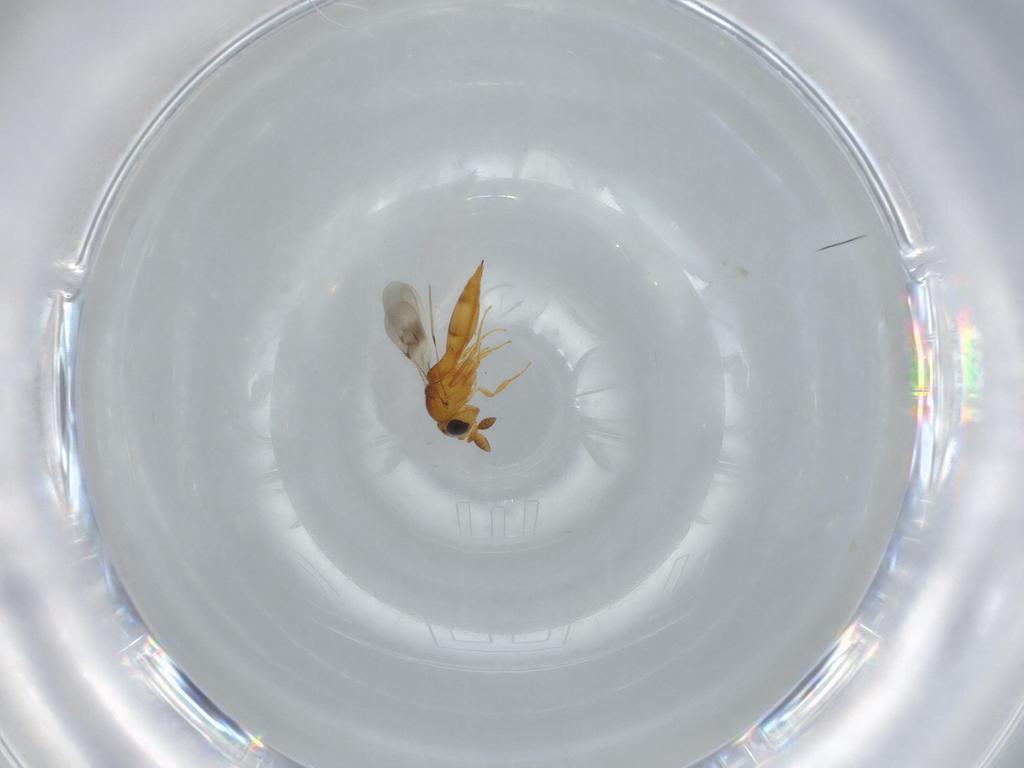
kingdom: Animalia
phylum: Arthropoda
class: Insecta
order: Hymenoptera
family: Scelionidae
